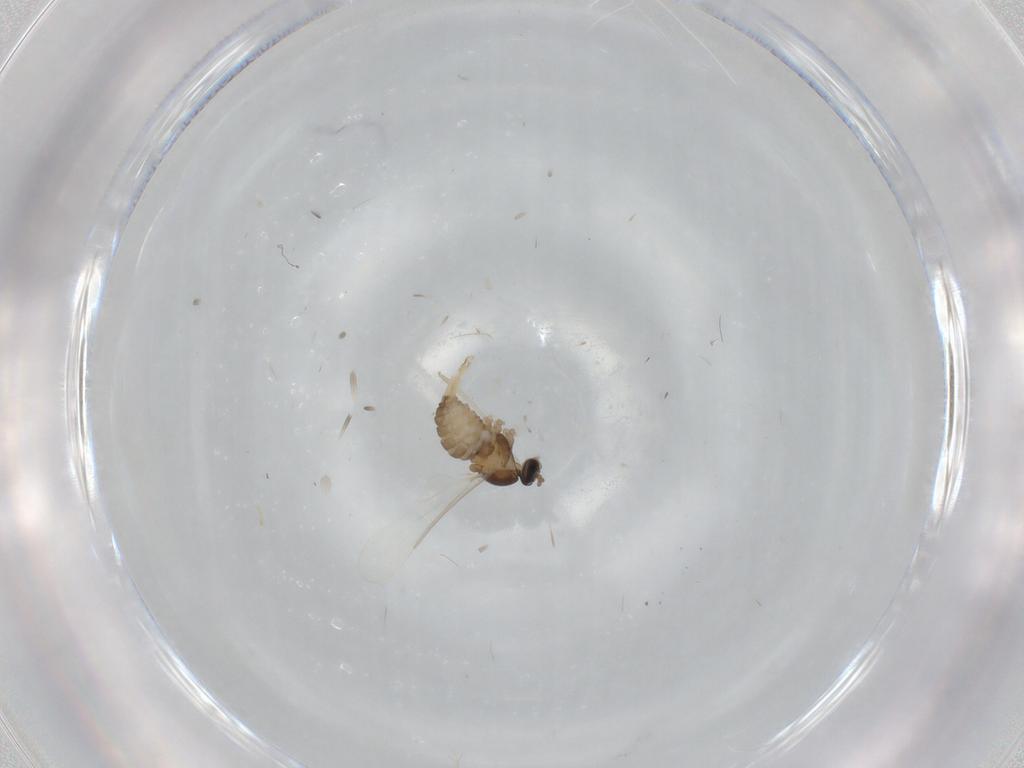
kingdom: Animalia
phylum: Arthropoda
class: Insecta
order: Diptera
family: Cecidomyiidae
